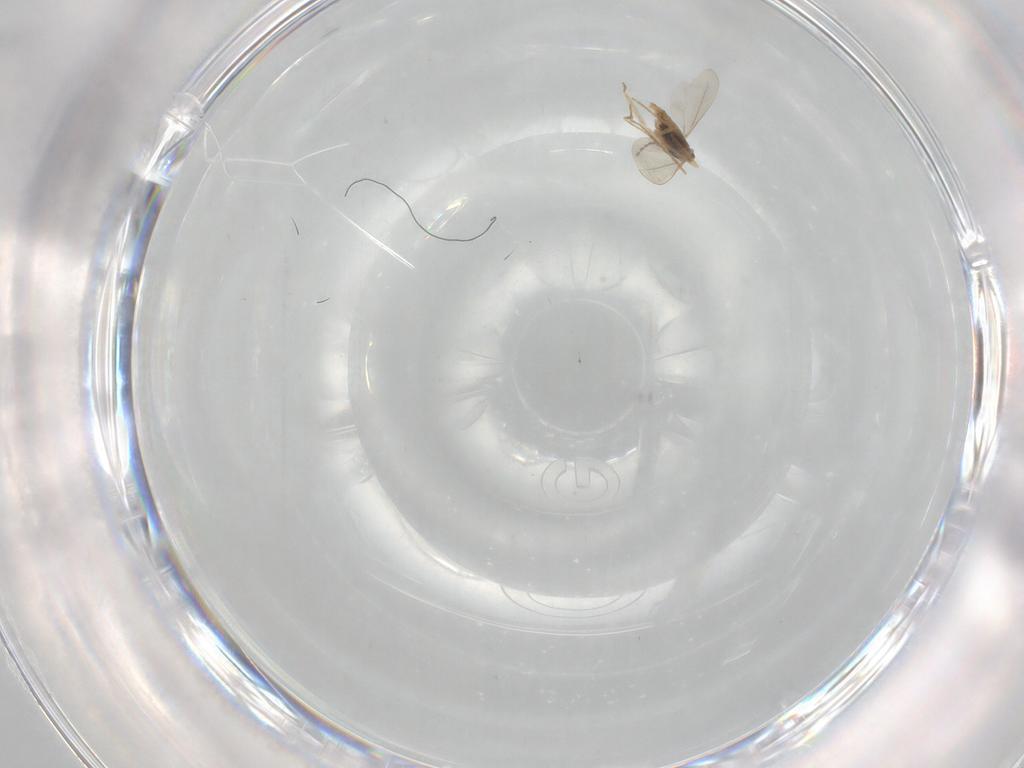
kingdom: Animalia
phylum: Arthropoda
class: Insecta
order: Diptera
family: Cecidomyiidae
